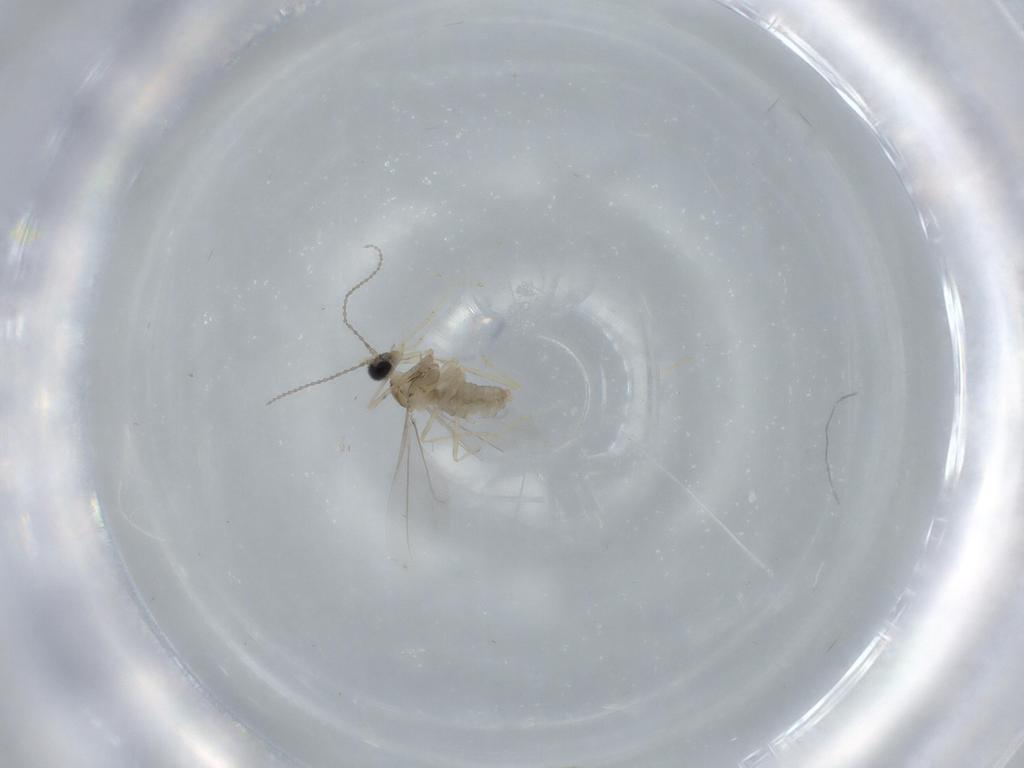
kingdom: Animalia
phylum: Arthropoda
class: Insecta
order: Diptera
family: Cecidomyiidae
